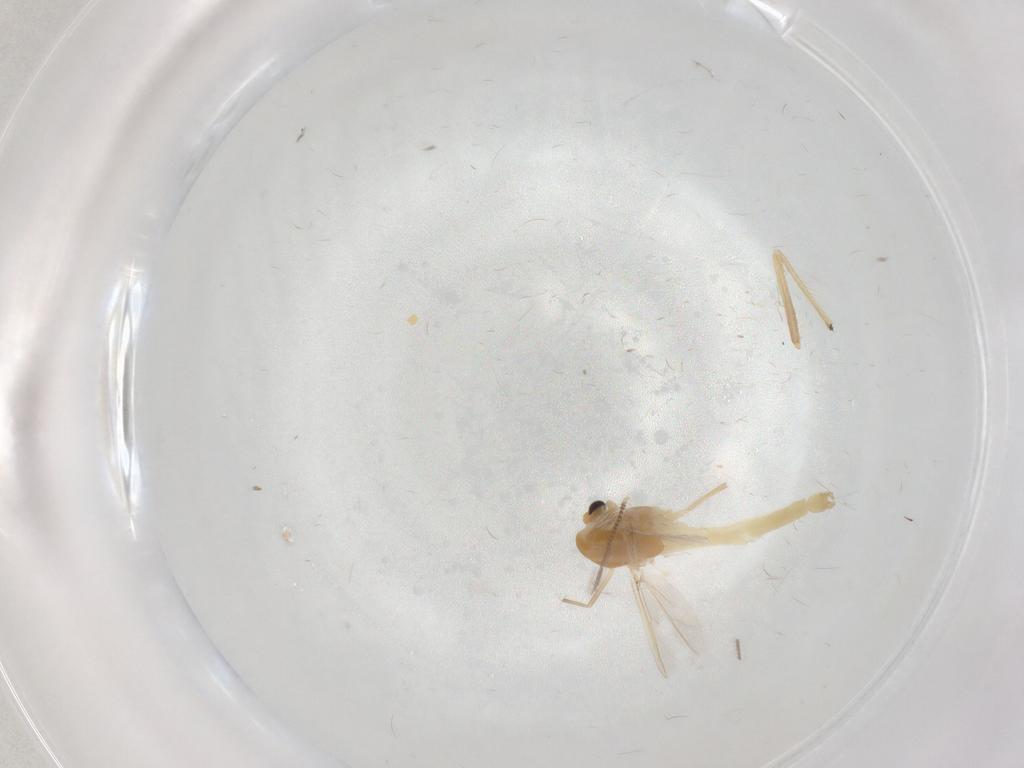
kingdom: Animalia
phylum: Arthropoda
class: Insecta
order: Diptera
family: Chironomidae
